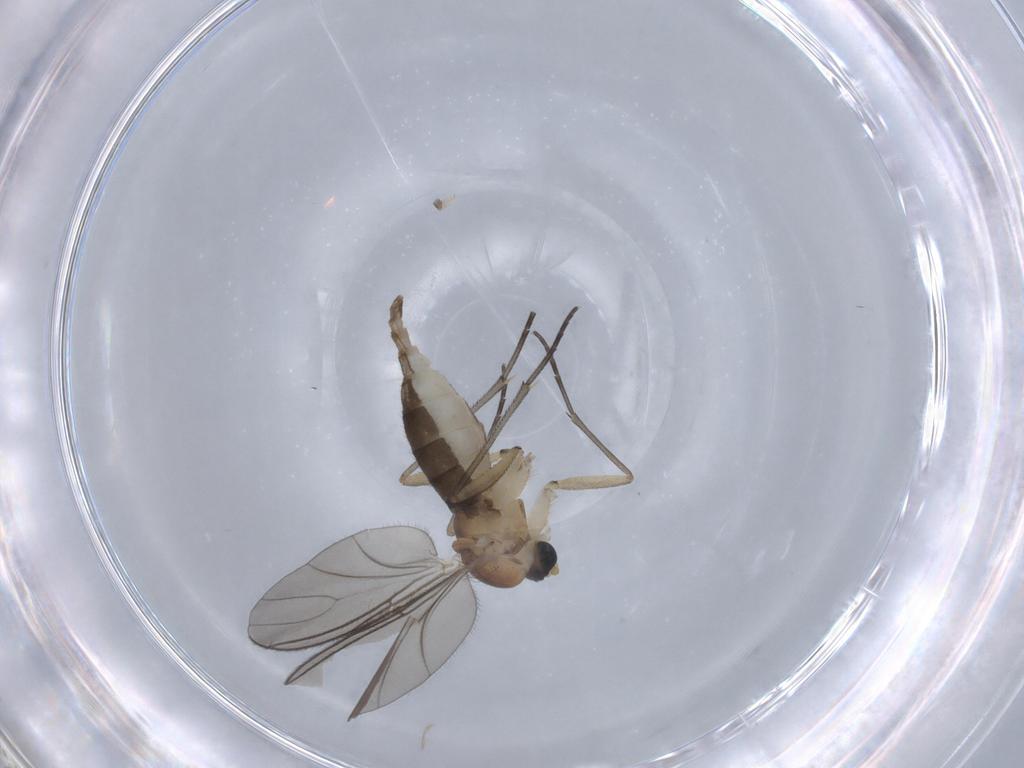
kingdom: Animalia
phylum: Arthropoda
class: Insecta
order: Diptera
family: Sciaridae
